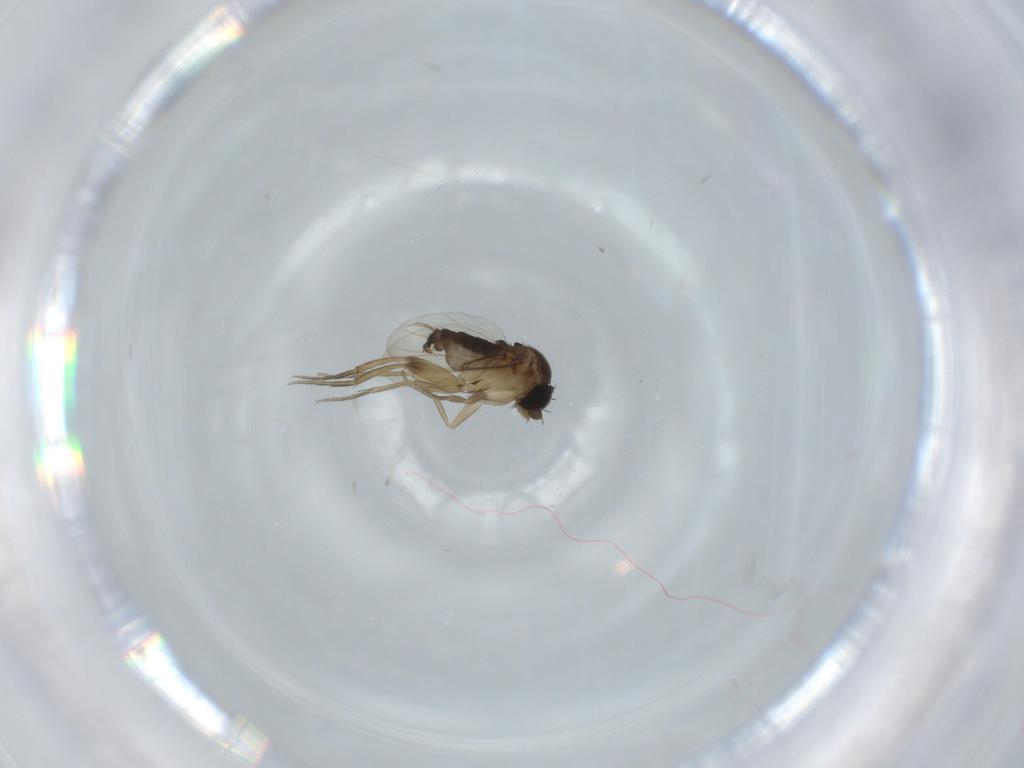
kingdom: Animalia
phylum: Arthropoda
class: Insecta
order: Diptera
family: Phoridae
